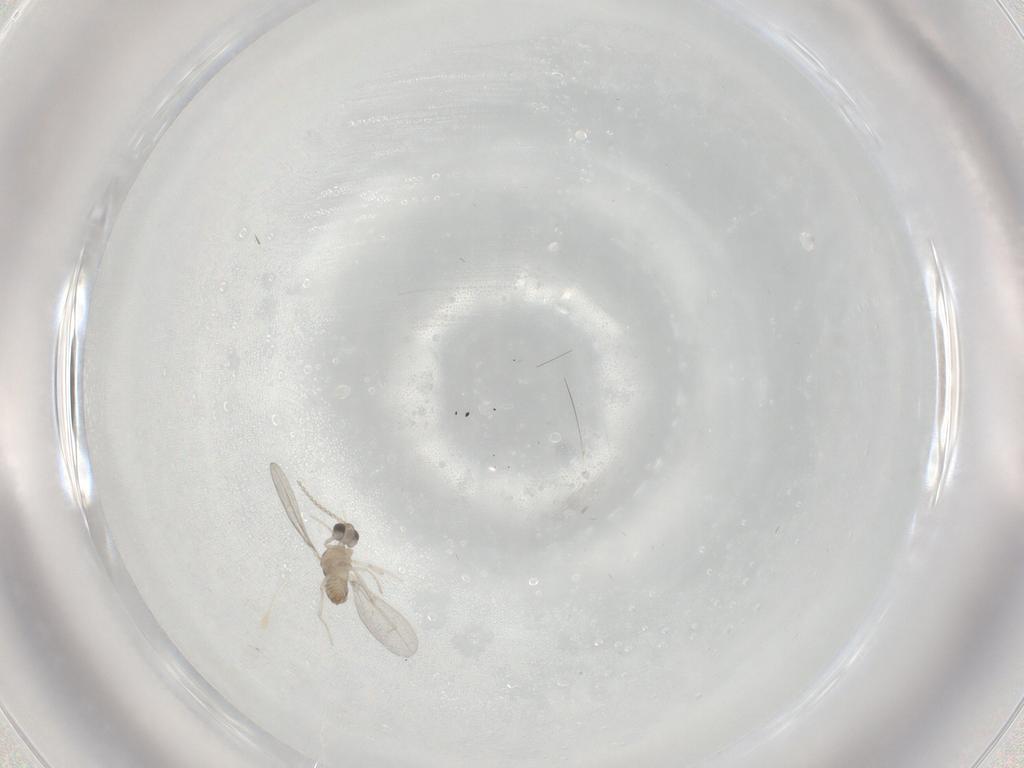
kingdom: Animalia
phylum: Arthropoda
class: Insecta
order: Diptera
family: Cecidomyiidae
